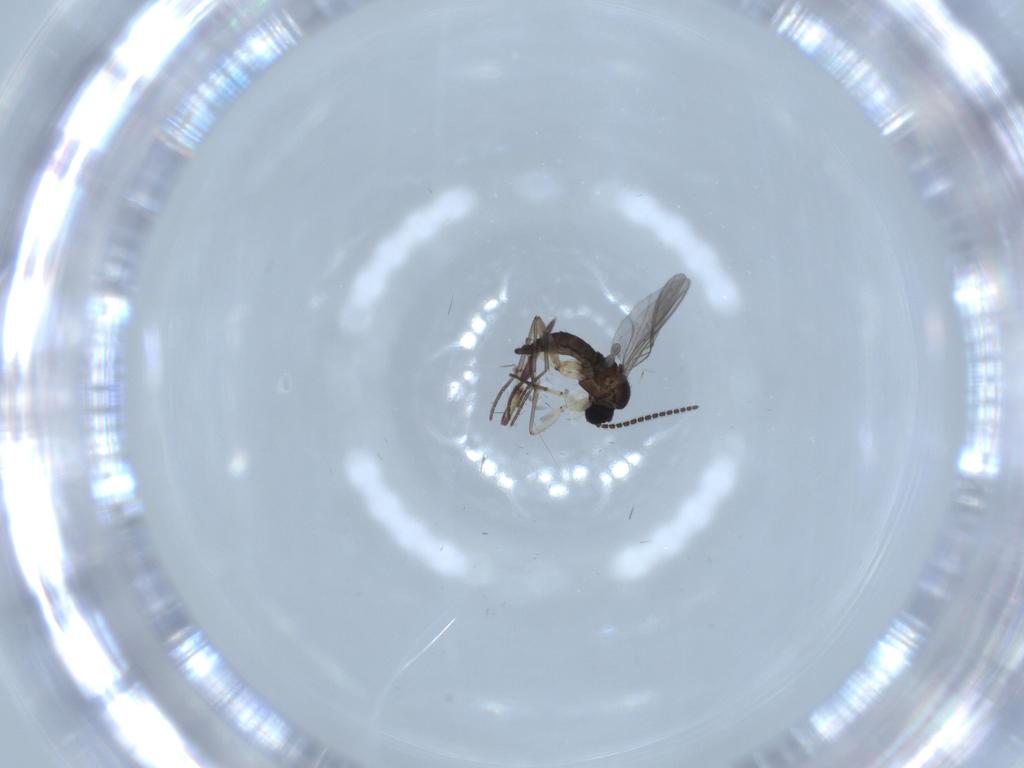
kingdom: Animalia
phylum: Arthropoda
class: Insecta
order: Diptera
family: Sciaridae
